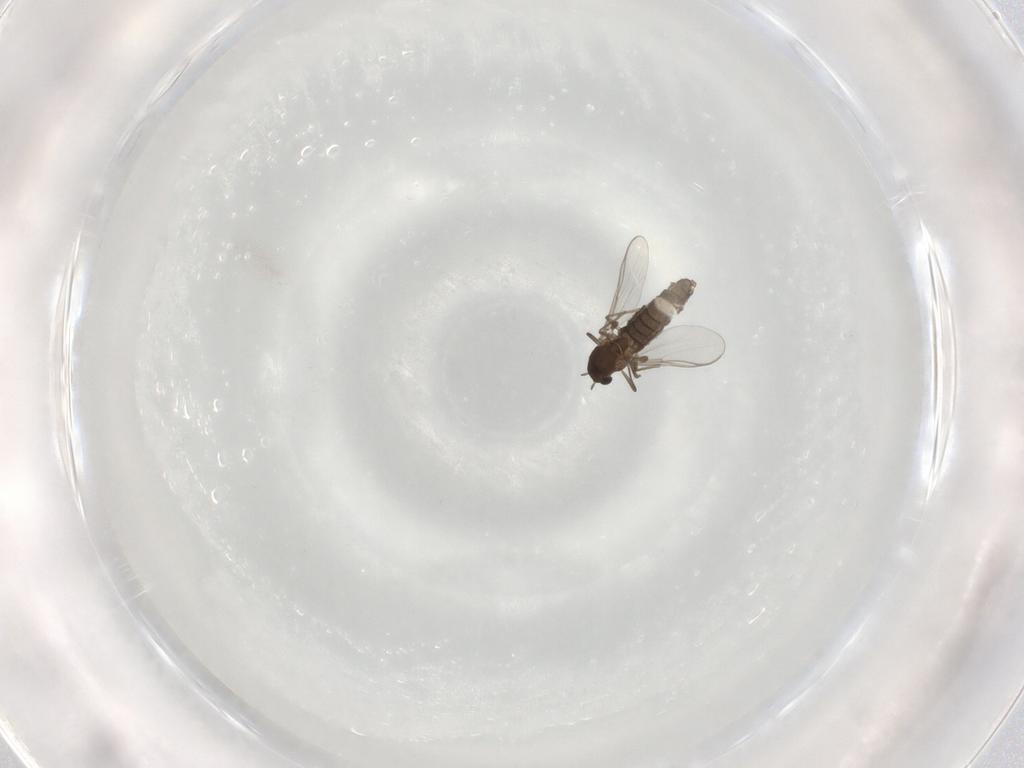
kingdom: Animalia
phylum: Arthropoda
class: Insecta
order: Diptera
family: Chironomidae
